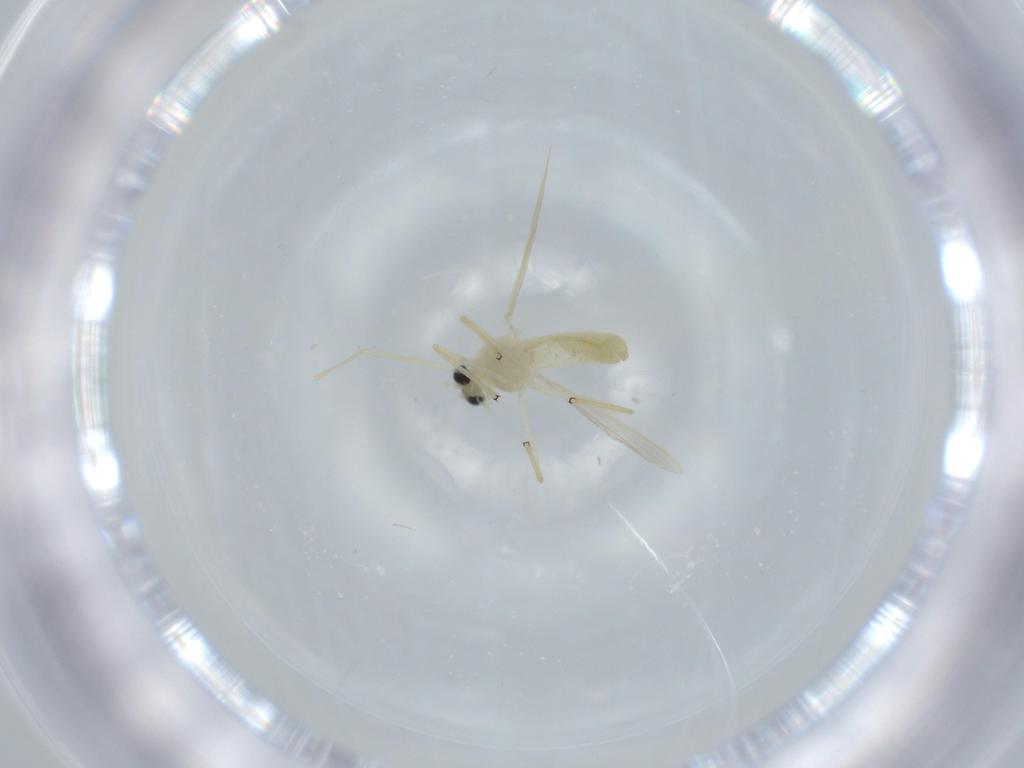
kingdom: Animalia
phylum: Arthropoda
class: Insecta
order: Diptera
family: Chironomidae
